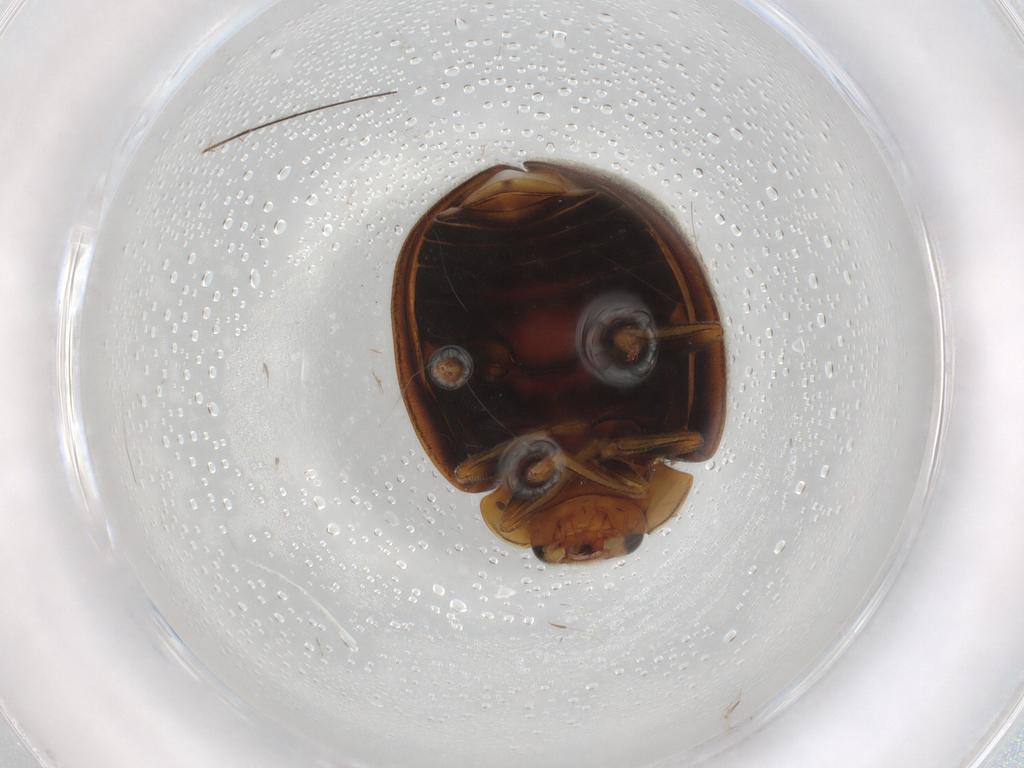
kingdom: Animalia
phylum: Arthropoda
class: Insecta
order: Coleoptera
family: Coccinellidae
